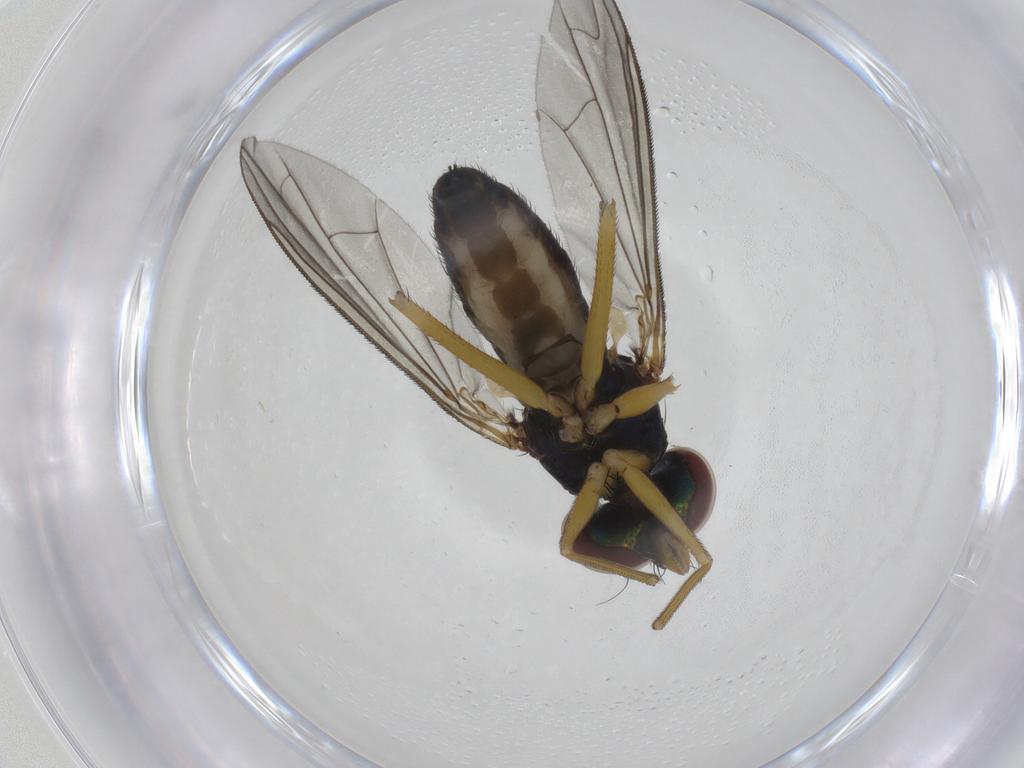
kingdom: Animalia
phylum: Arthropoda
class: Insecta
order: Diptera
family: Dolichopodidae
